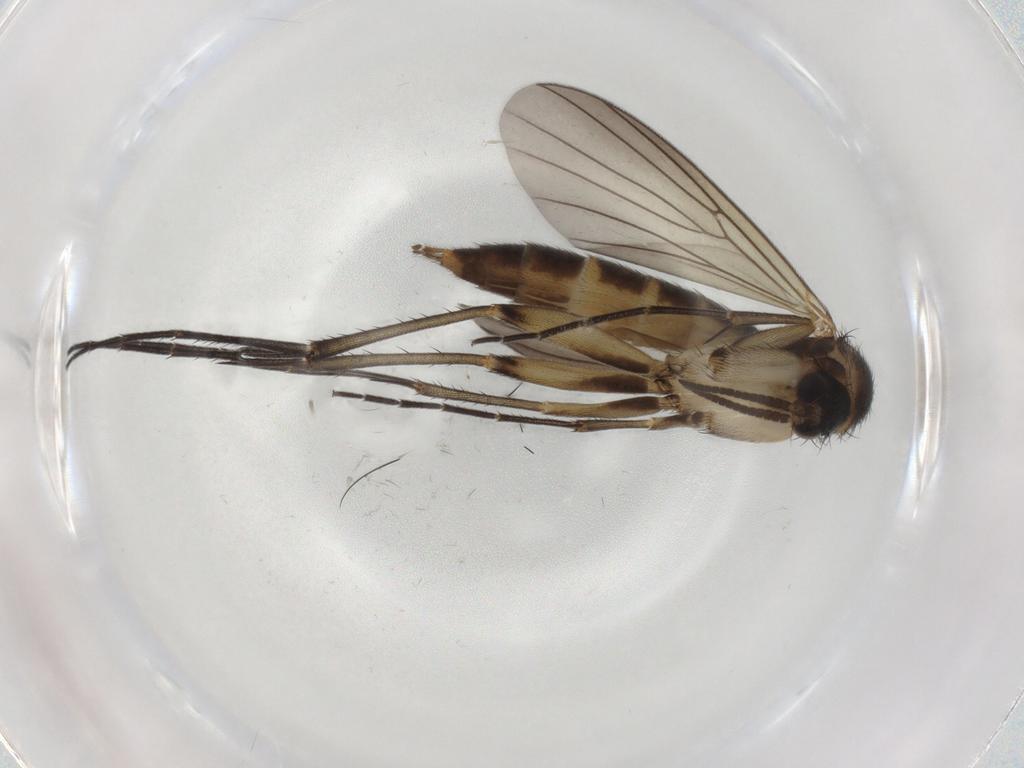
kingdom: Animalia
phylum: Arthropoda
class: Insecta
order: Diptera
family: Mycetophilidae
